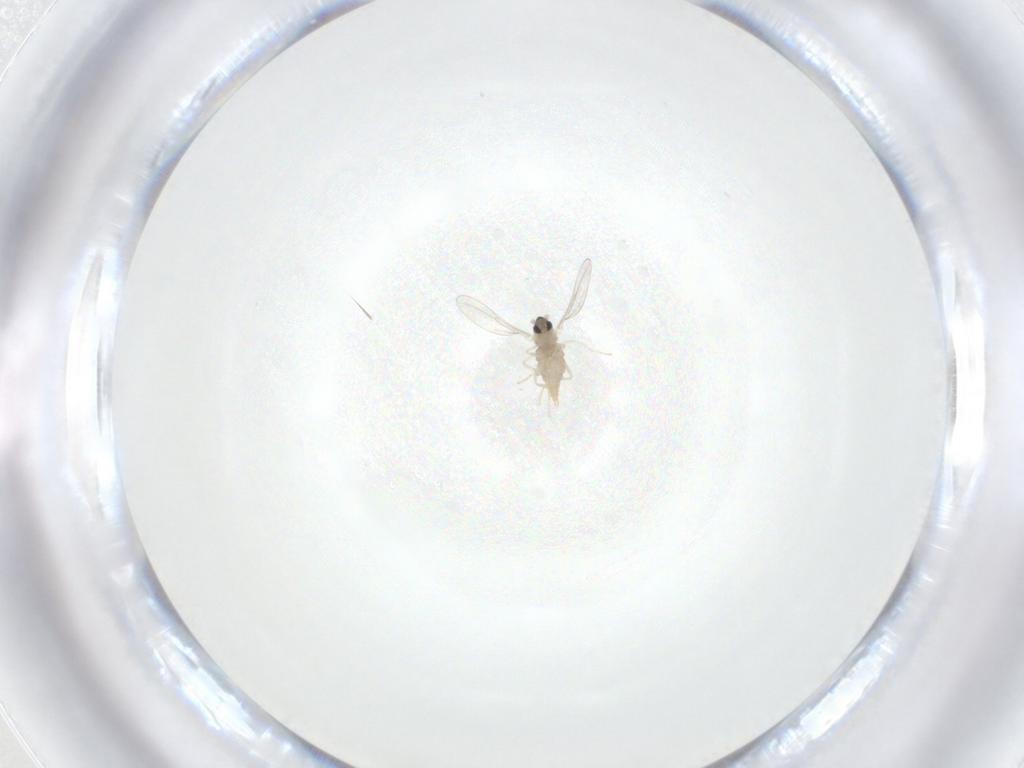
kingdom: Animalia
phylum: Arthropoda
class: Insecta
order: Diptera
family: Cecidomyiidae
